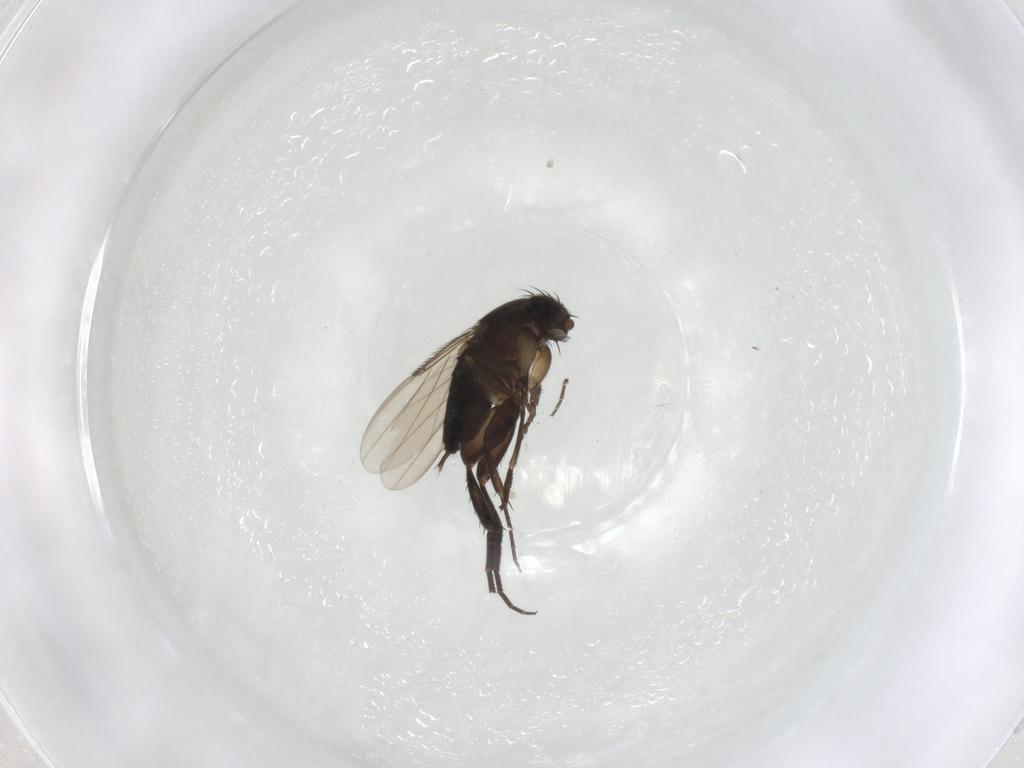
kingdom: Animalia
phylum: Arthropoda
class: Insecta
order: Diptera
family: Phoridae
